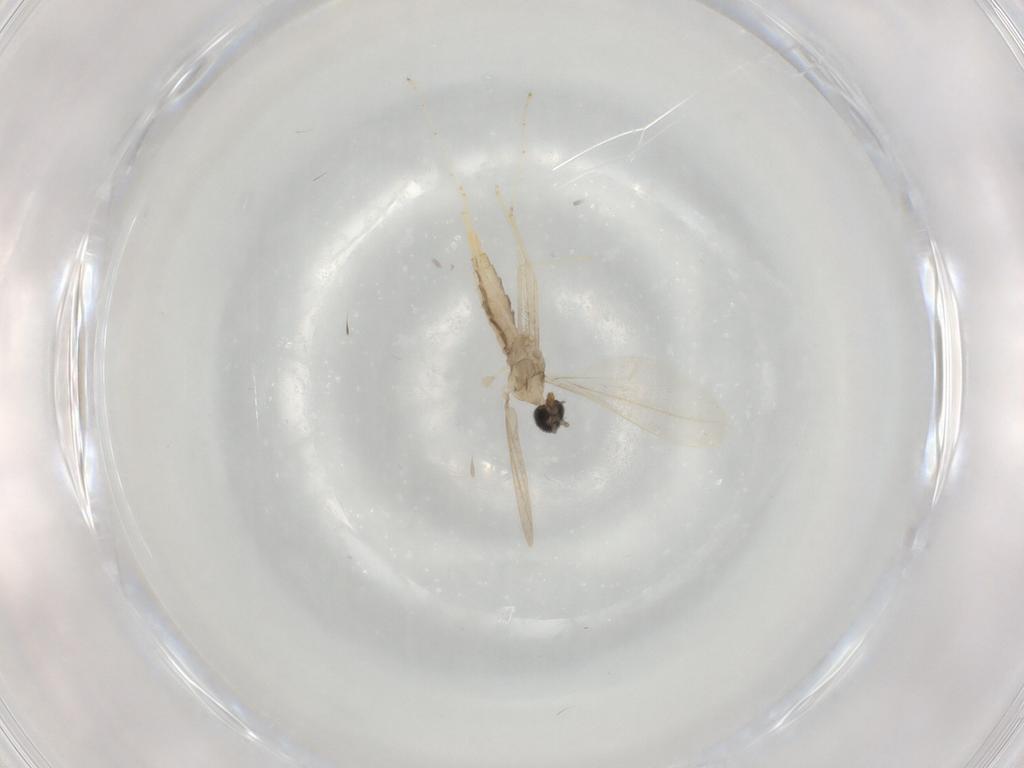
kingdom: Animalia
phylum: Arthropoda
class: Insecta
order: Diptera
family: Cecidomyiidae
